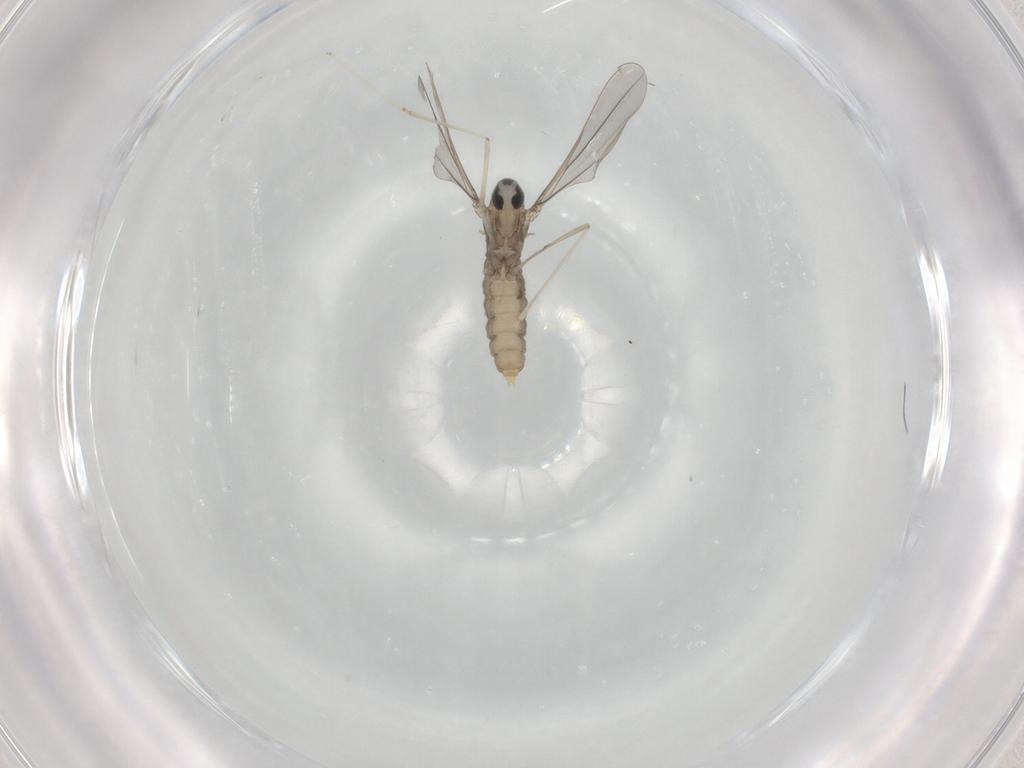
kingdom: Animalia
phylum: Arthropoda
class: Insecta
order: Diptera
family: Cecidomyiidae
